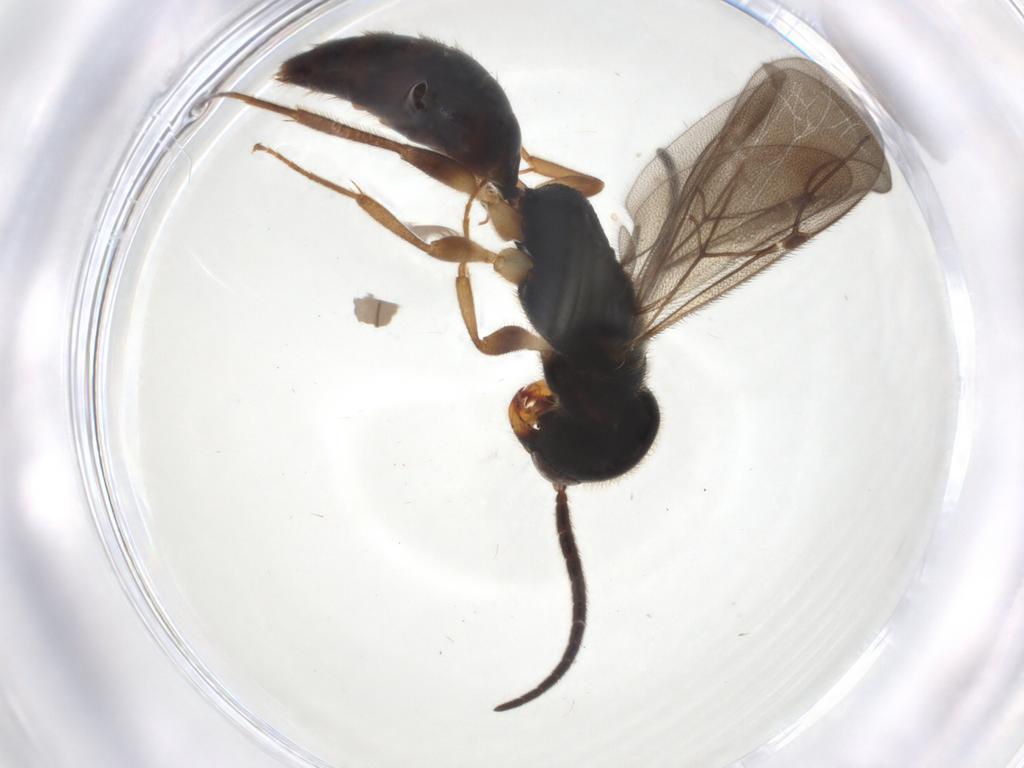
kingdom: Animalia
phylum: Arthropoda
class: Insecta
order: Hymenoptera
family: Bethylidae
